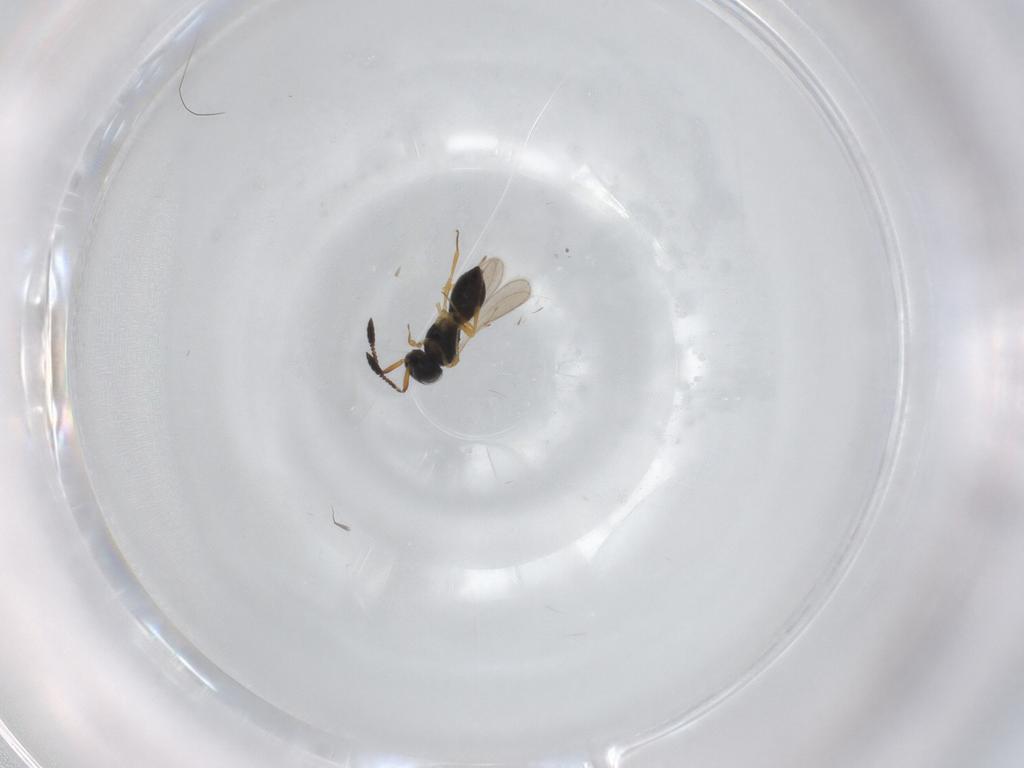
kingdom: Animalia
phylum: Arthropoda
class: Insecta
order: Hymenoptera
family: Scelionidae
